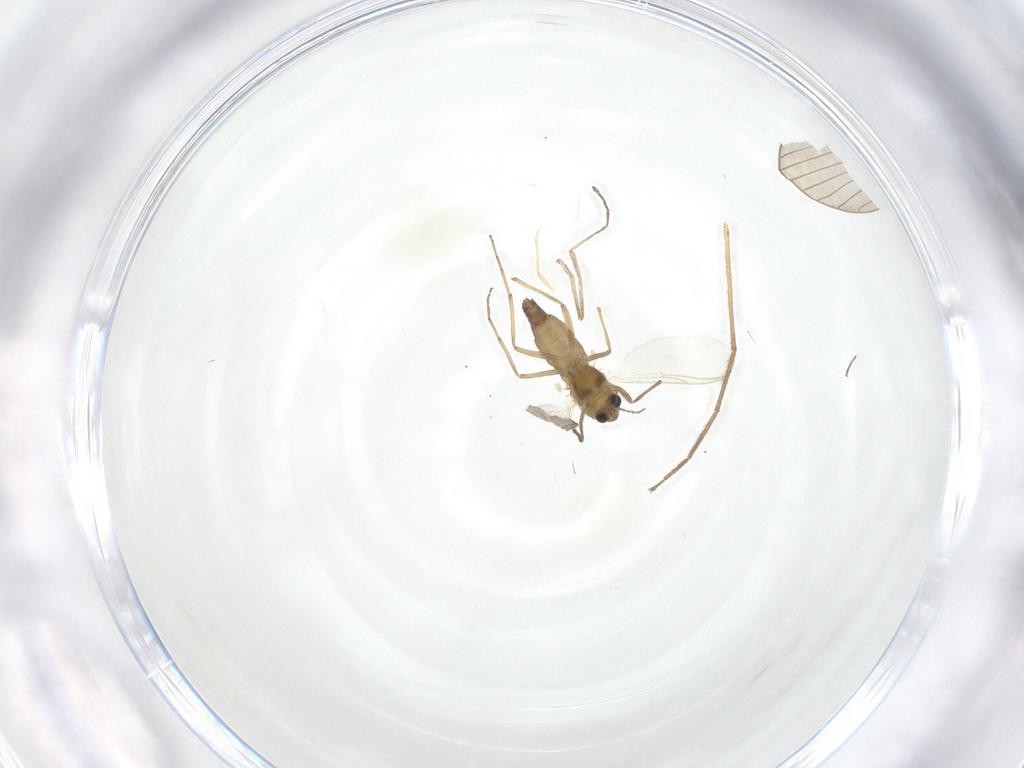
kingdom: Animalia
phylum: Arthropoda
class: Insecta
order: Diptera
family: Cecidomyiidae
